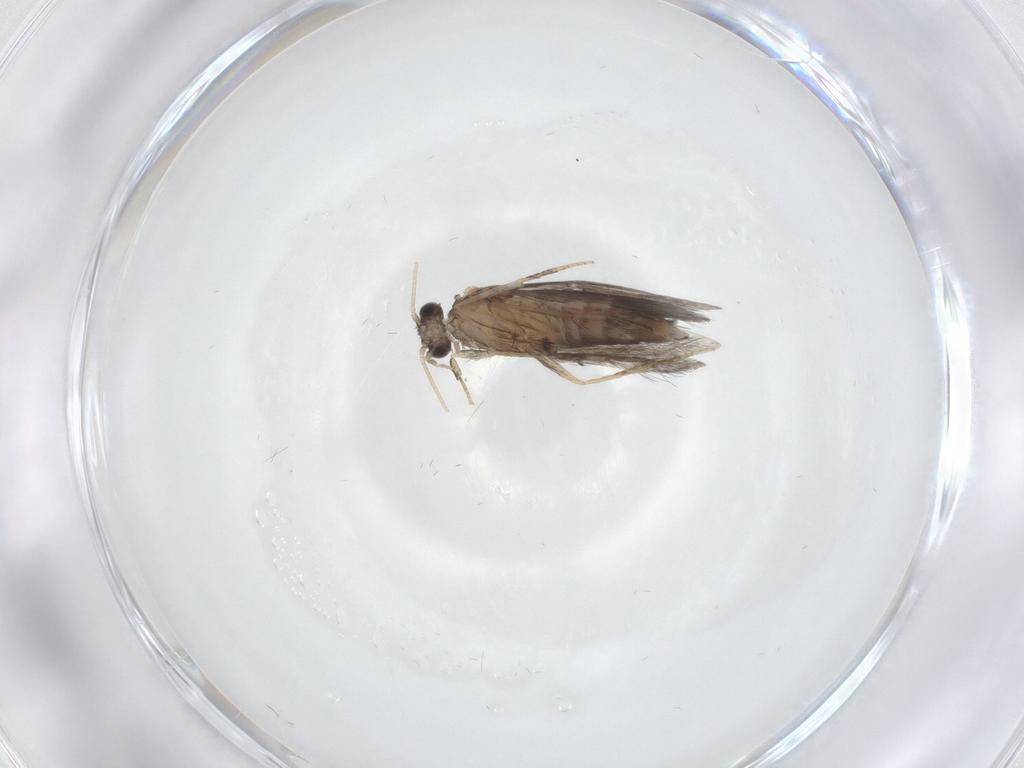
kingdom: Animalia
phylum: Arthropoda
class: Insecta
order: Trichoptera
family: Hydroptilidae
